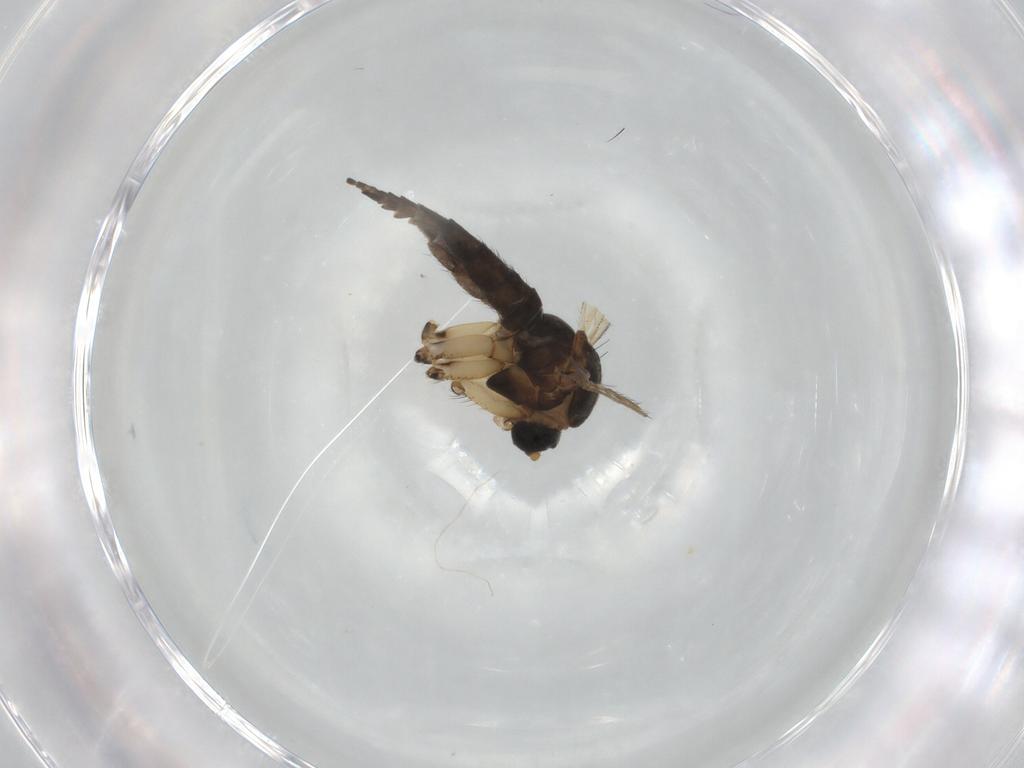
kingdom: Animalia
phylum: Arthropoda
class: Insecta
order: Diptera
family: Sciaridae
